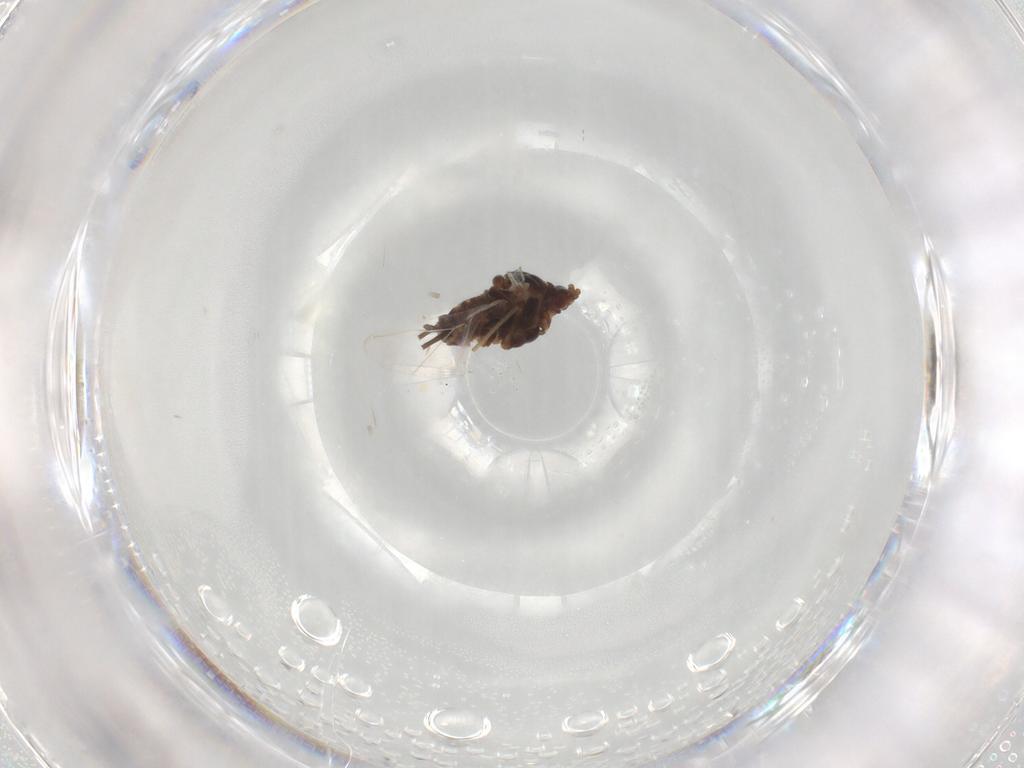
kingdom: Animalia
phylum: Arthropoda
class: Insecta
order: Hemiptera
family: Aphididae
